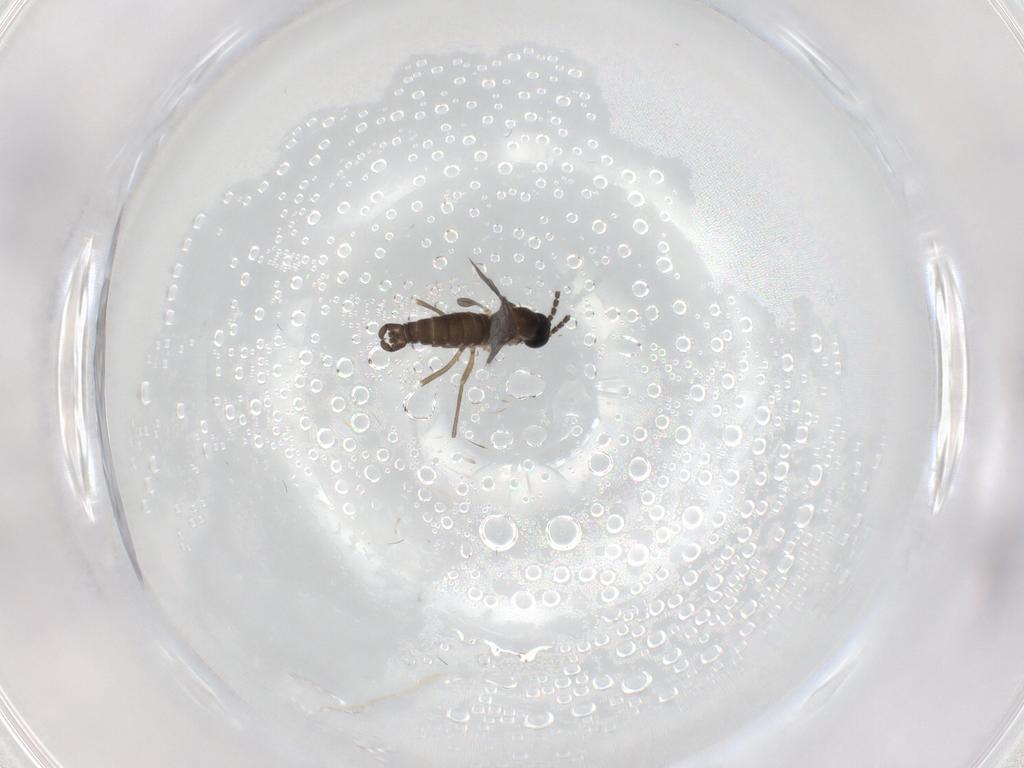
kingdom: Animalia
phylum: Arthropoda
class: Insecta
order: Diptera
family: Sciaridae
